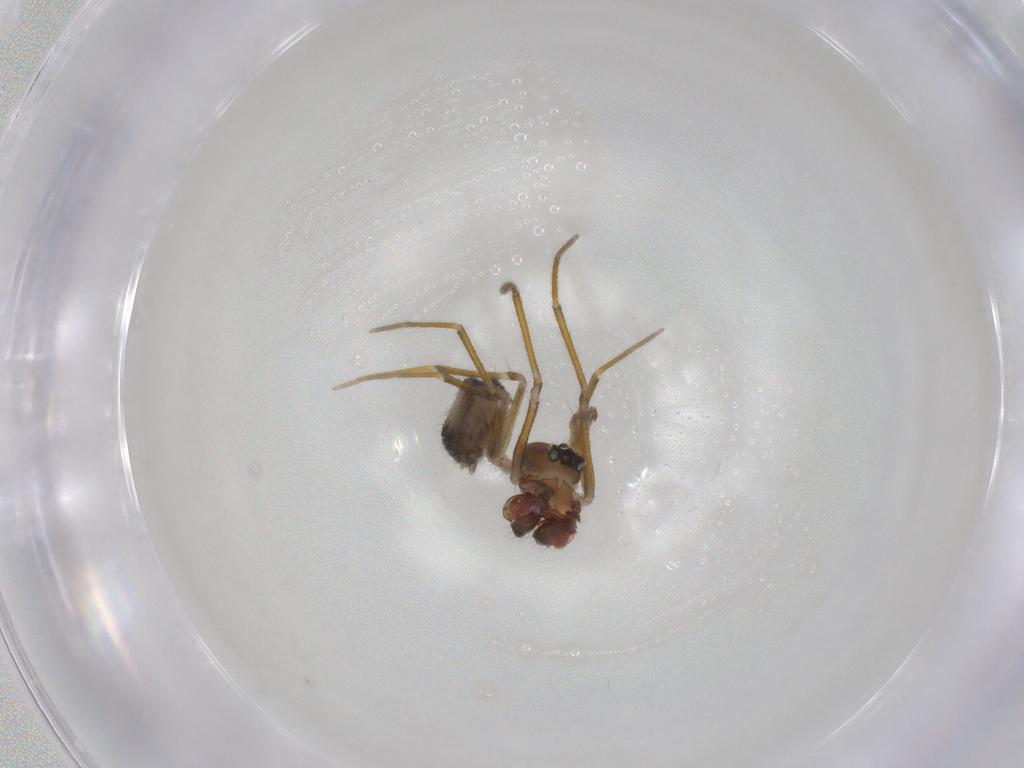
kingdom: Animalia
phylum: Arthropoda
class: Arachnida
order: Araneae
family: Linyphiidae
